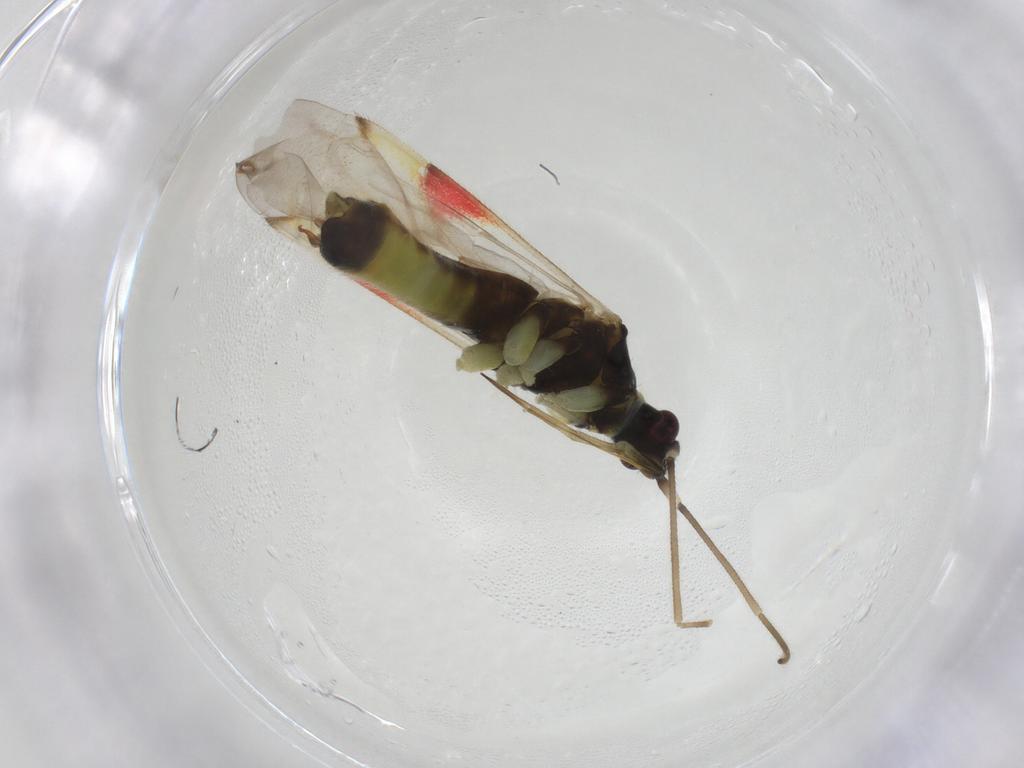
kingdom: Animalia
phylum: Arthropoda
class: Insecta
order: Hemiptera
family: Miridae
